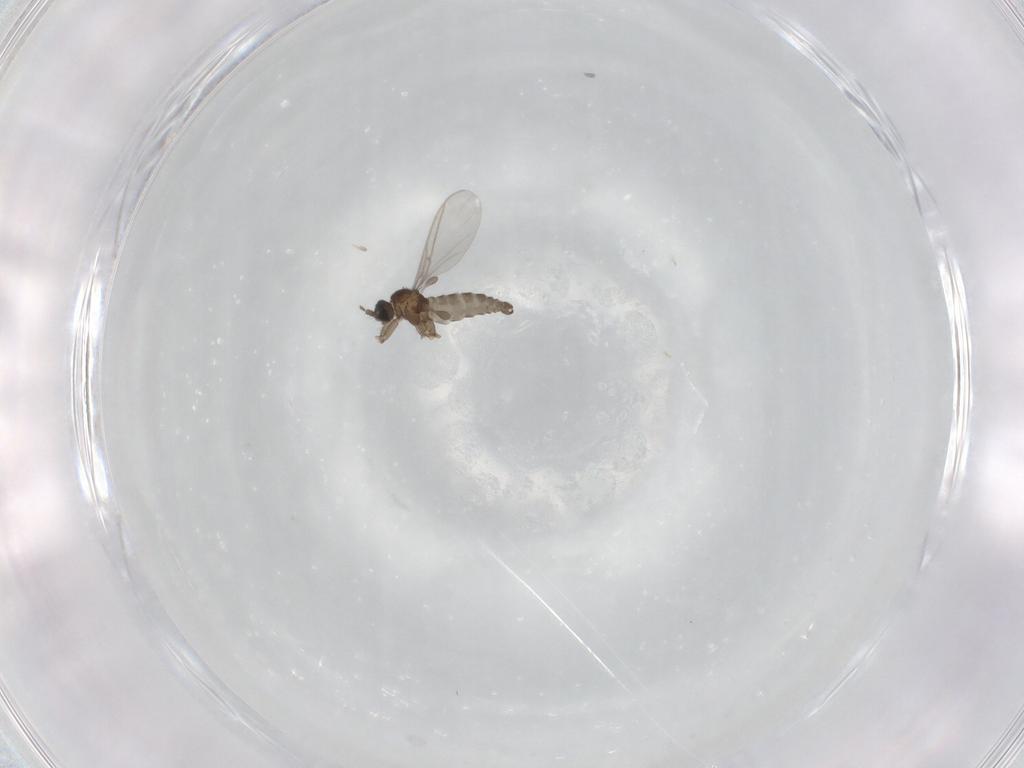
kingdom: Animalia
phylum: Arthropoda
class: Insecta
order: Diptera
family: Sciaridae
